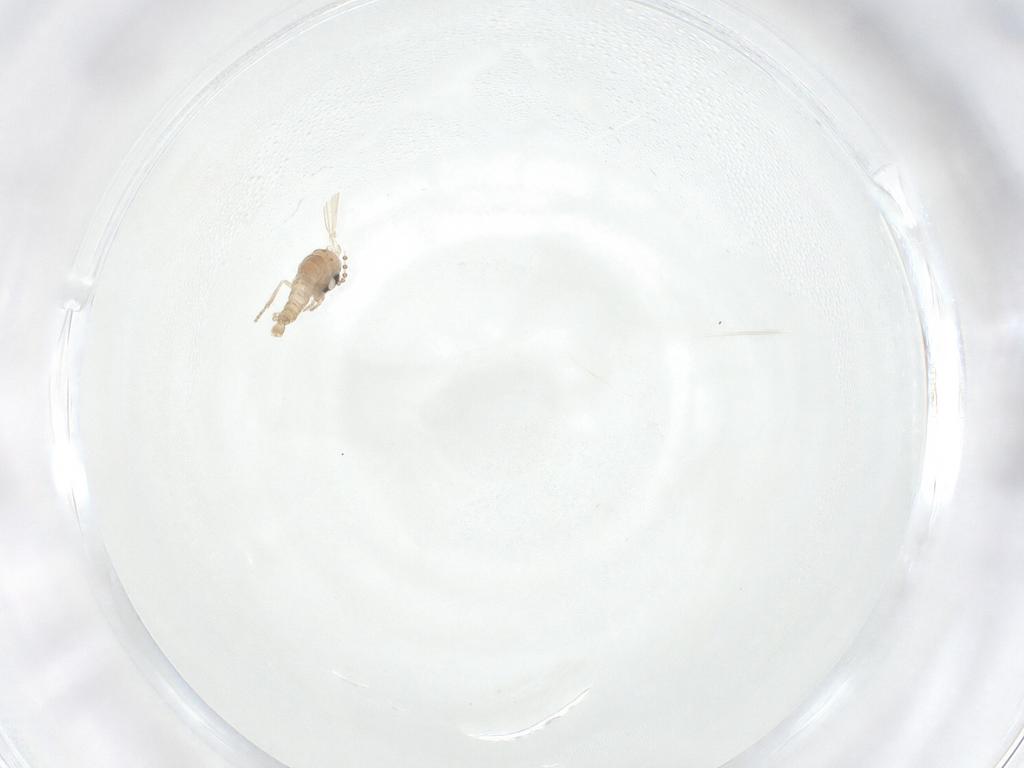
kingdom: Animalia
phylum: Arthropoda
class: Insecta
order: Diptera
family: Psychodidae
